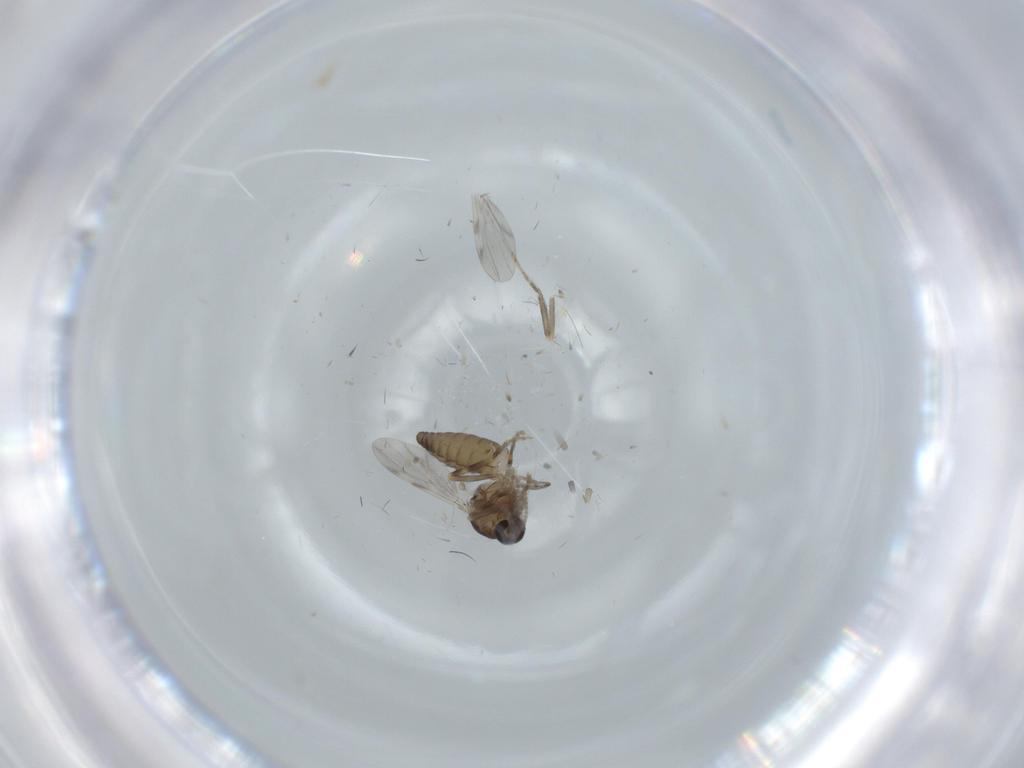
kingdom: Animalia
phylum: Arthropoda
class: Insecta
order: Diptera
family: Ceratopogonidae
